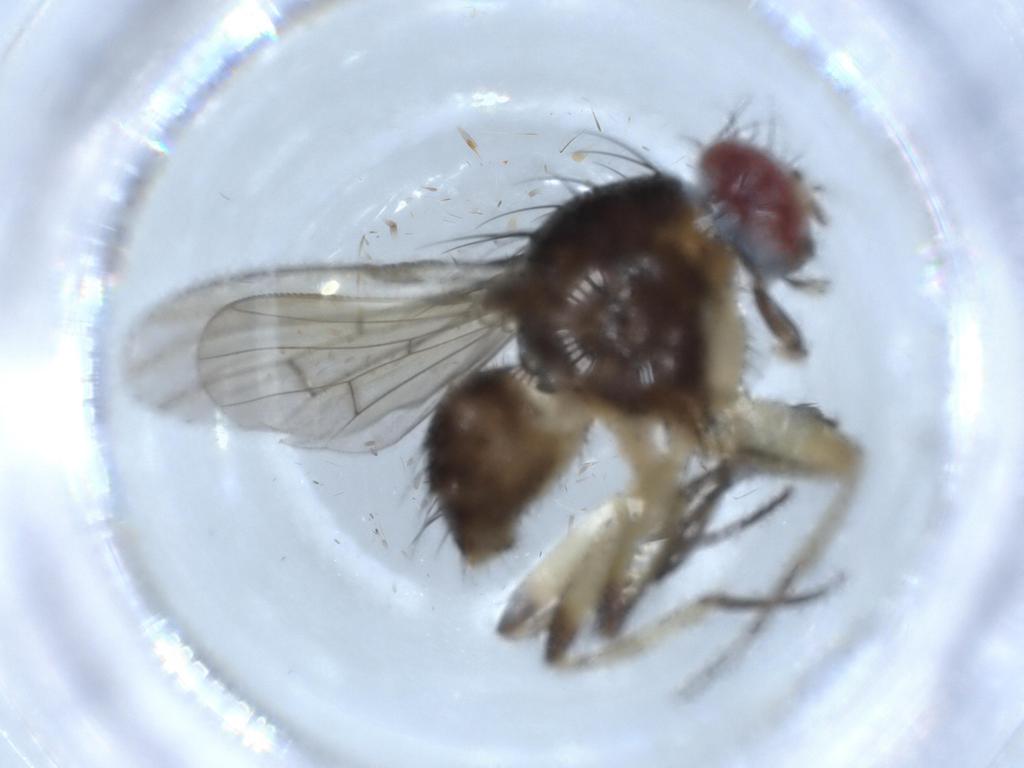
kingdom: Animalia
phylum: Arthropoda
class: Insecta
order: Diptera
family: Muscidae
